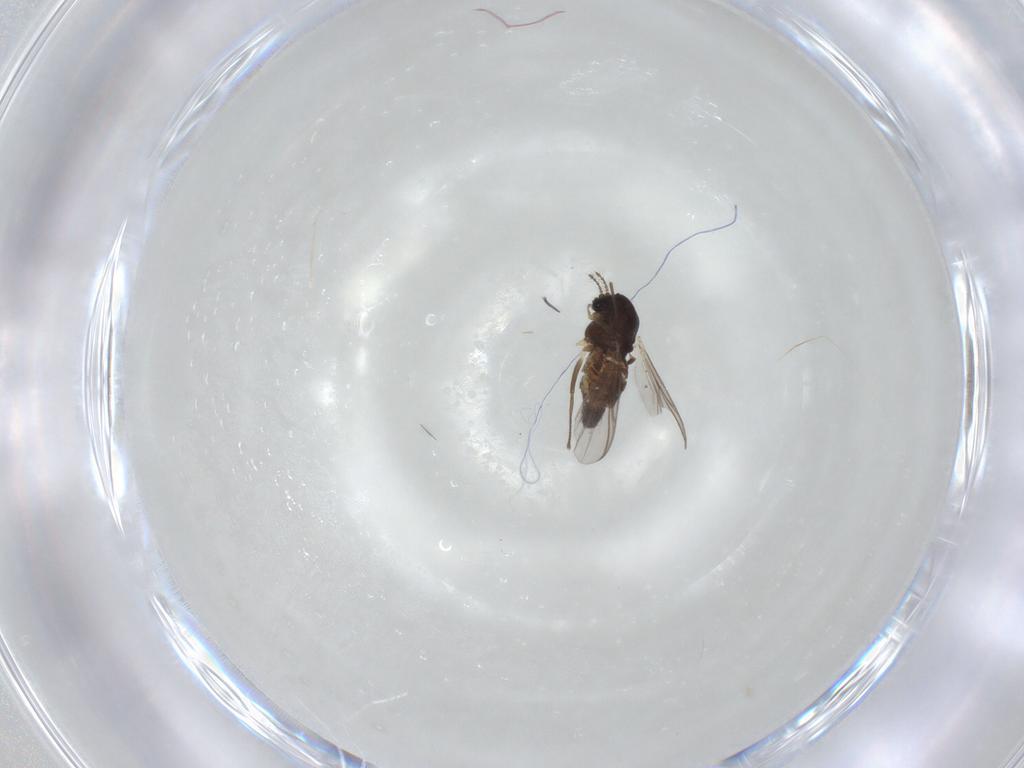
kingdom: Animalia
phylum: Arthropoda
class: Insecta
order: Diptera
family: Chironomidae
